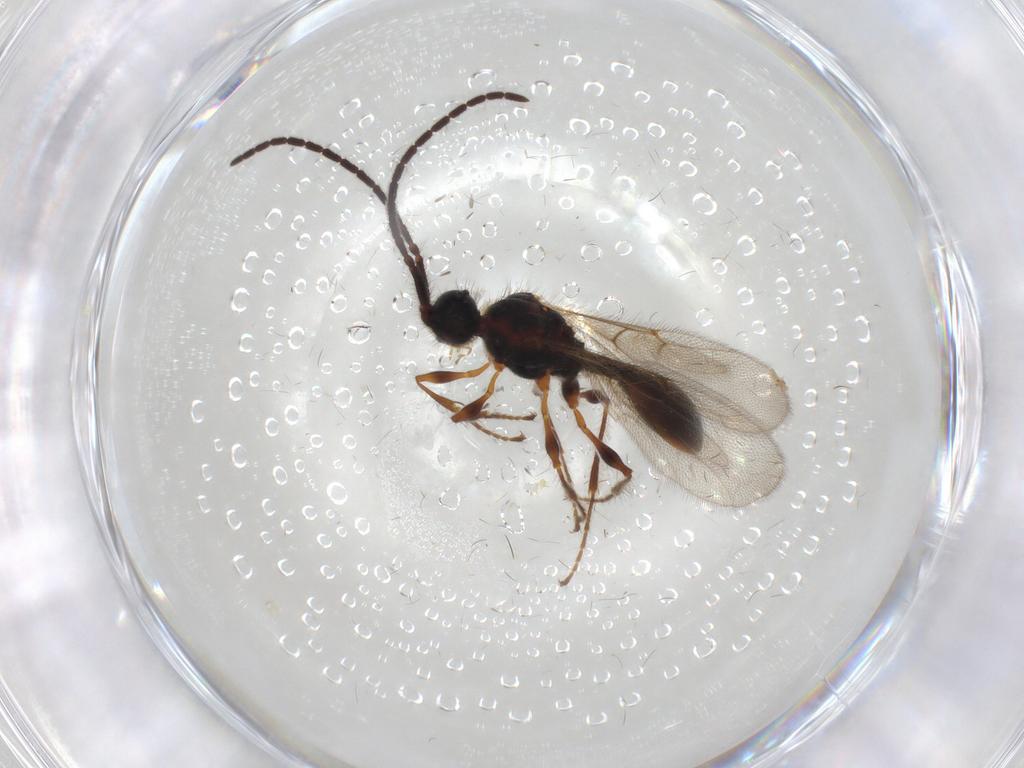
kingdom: Animalia
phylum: Arthropoda
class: Insecta
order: Hymenoptera
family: Diapriidae
